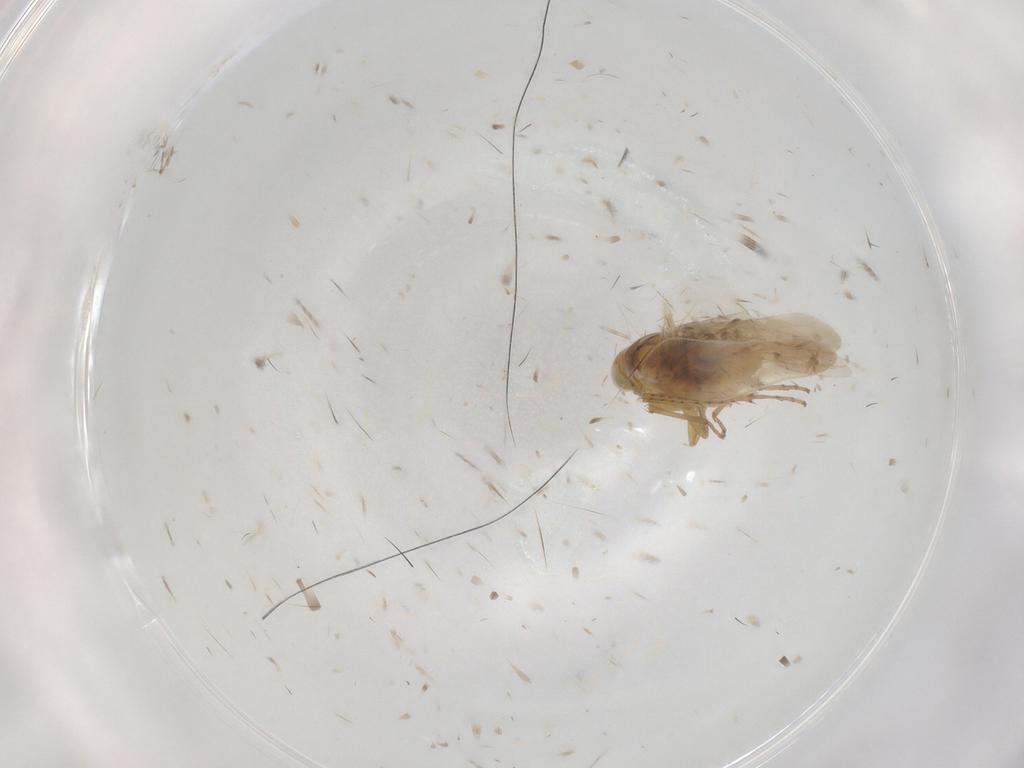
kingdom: Animalia
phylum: Arthropoda
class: Insecta
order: Hemiptera
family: Cicadellidae
